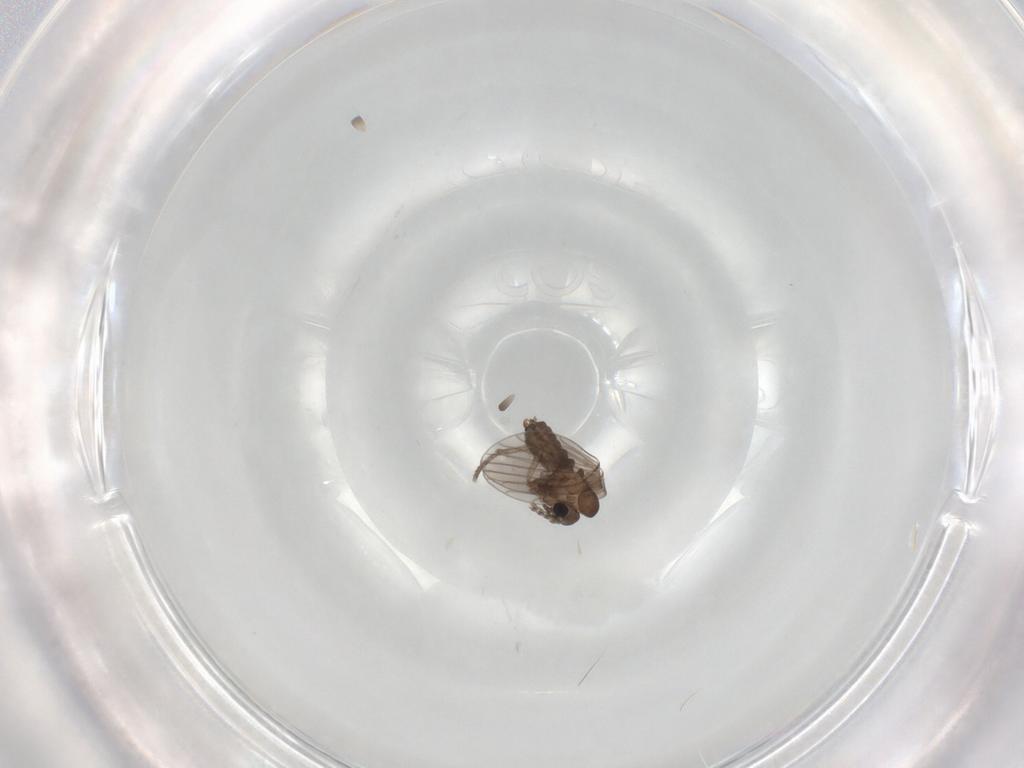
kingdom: Animalia
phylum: Arthropoda
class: Insecta
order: Diptera
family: Psychodidae
